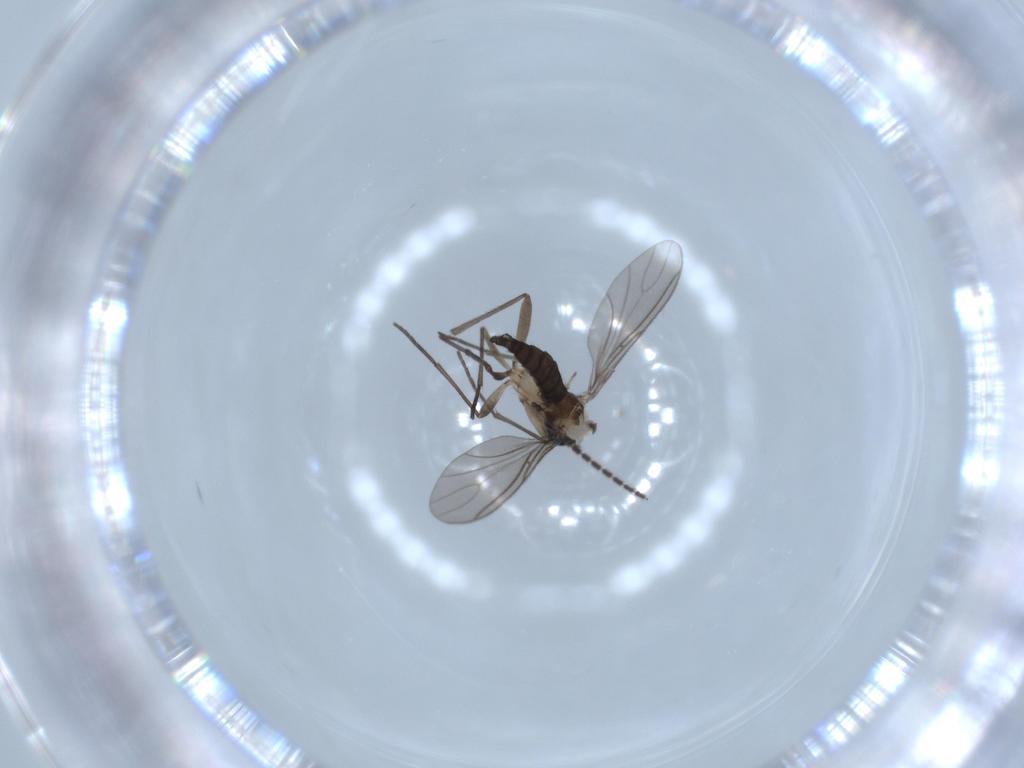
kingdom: Animalia
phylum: Arthropoda
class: Insecta
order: Diptera
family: Sciaridae
